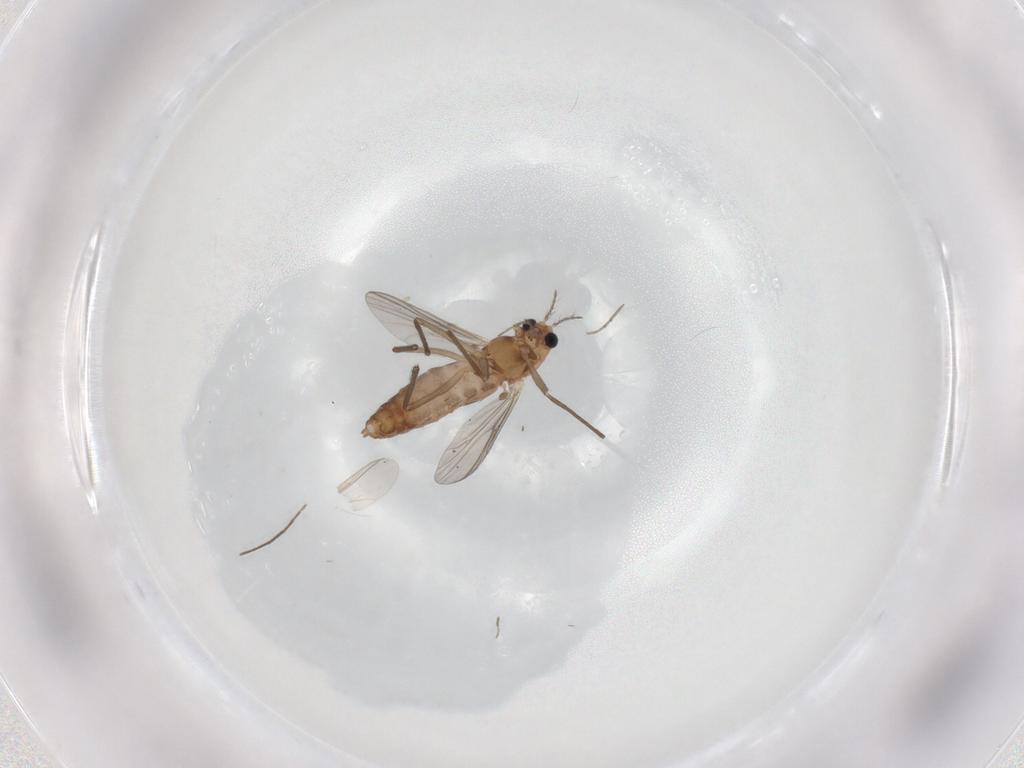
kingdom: Animalia
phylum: Arthropoda
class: Insecta
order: Diptera
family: Chironomidae
